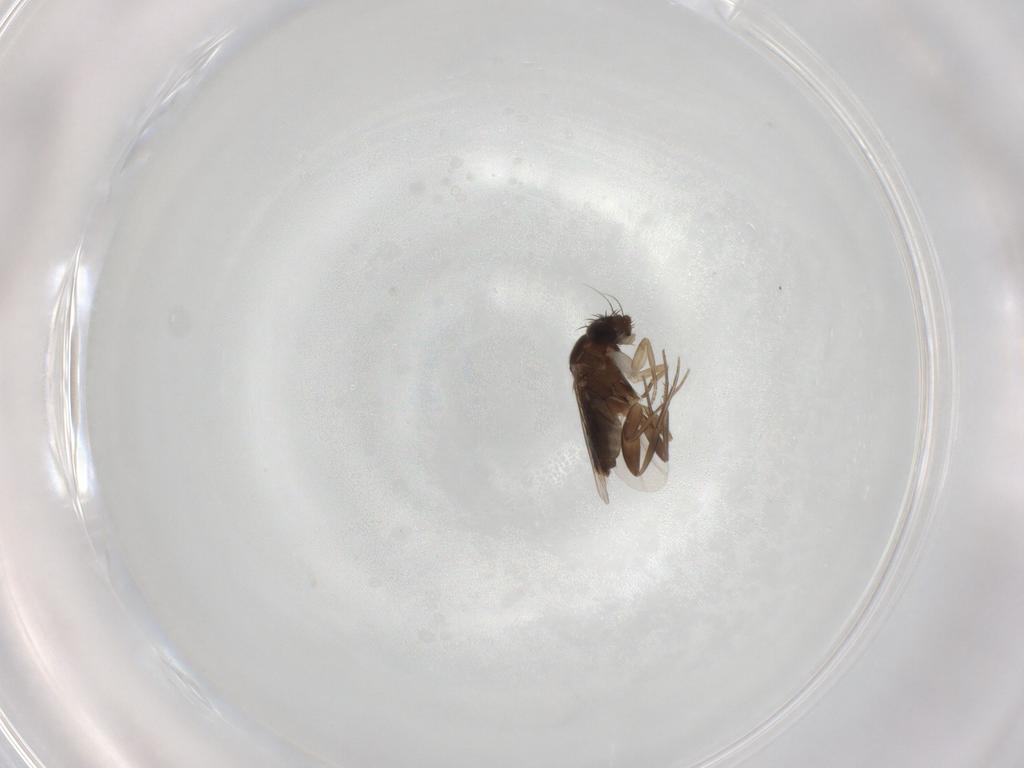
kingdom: Animalia
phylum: Arthropoda
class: Insecta
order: Diptera
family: Phoridae
